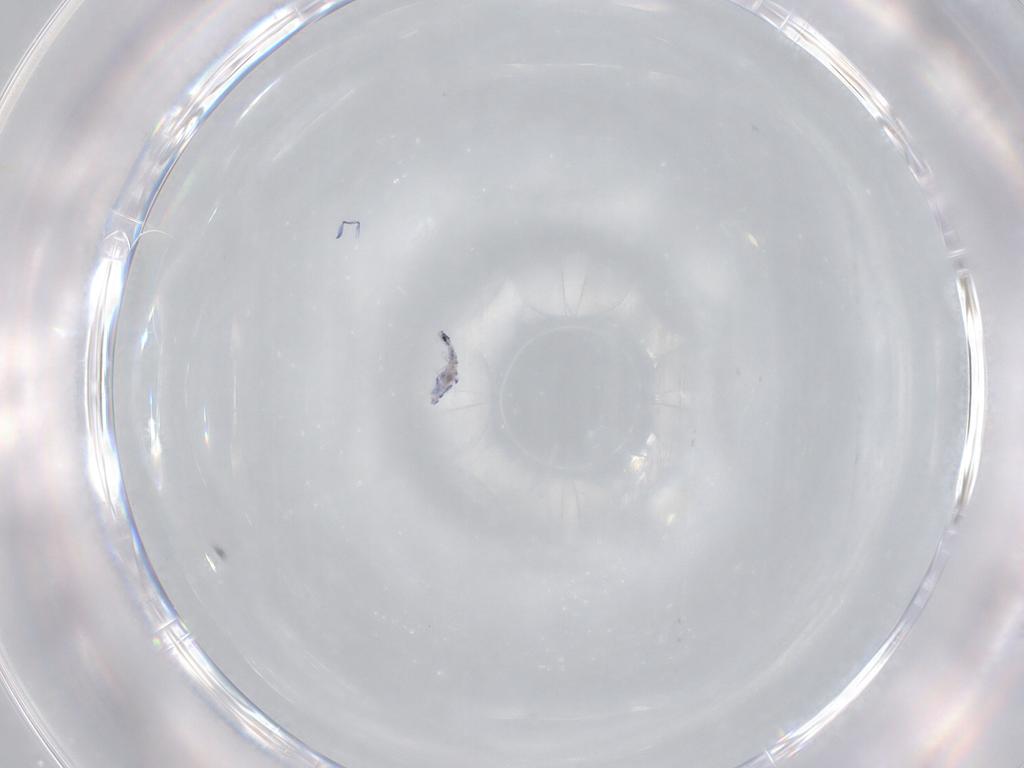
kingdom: Animalia
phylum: Arthropoda
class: Collembola
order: Entomobryomorpha
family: Entomobryidae
